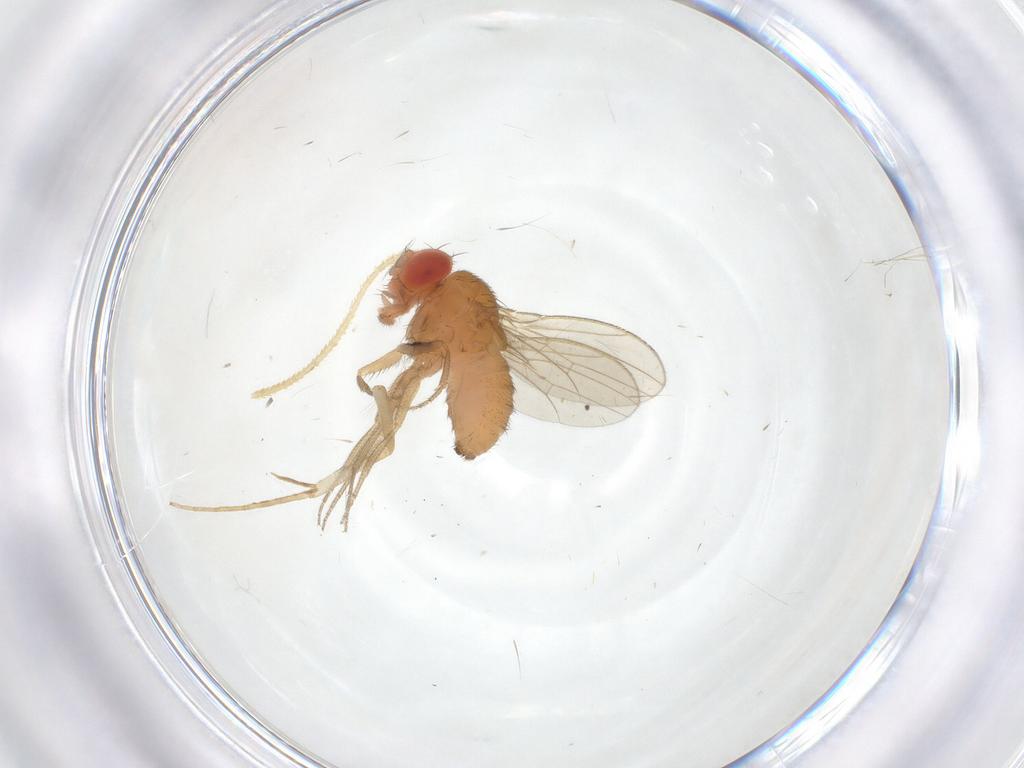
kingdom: Animalia
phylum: Arthropoda
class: Insecta
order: Diptera
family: Drosophilidae
